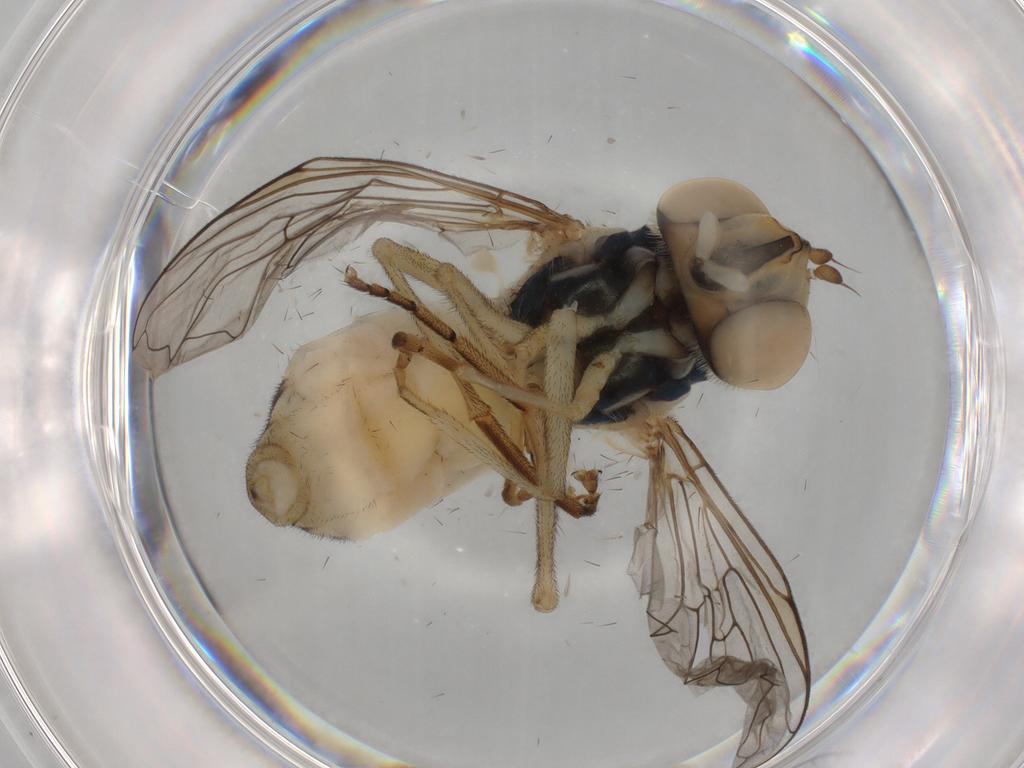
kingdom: Animalia
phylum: Arthropoda
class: Insecta
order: Diptera
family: Syrphidae
